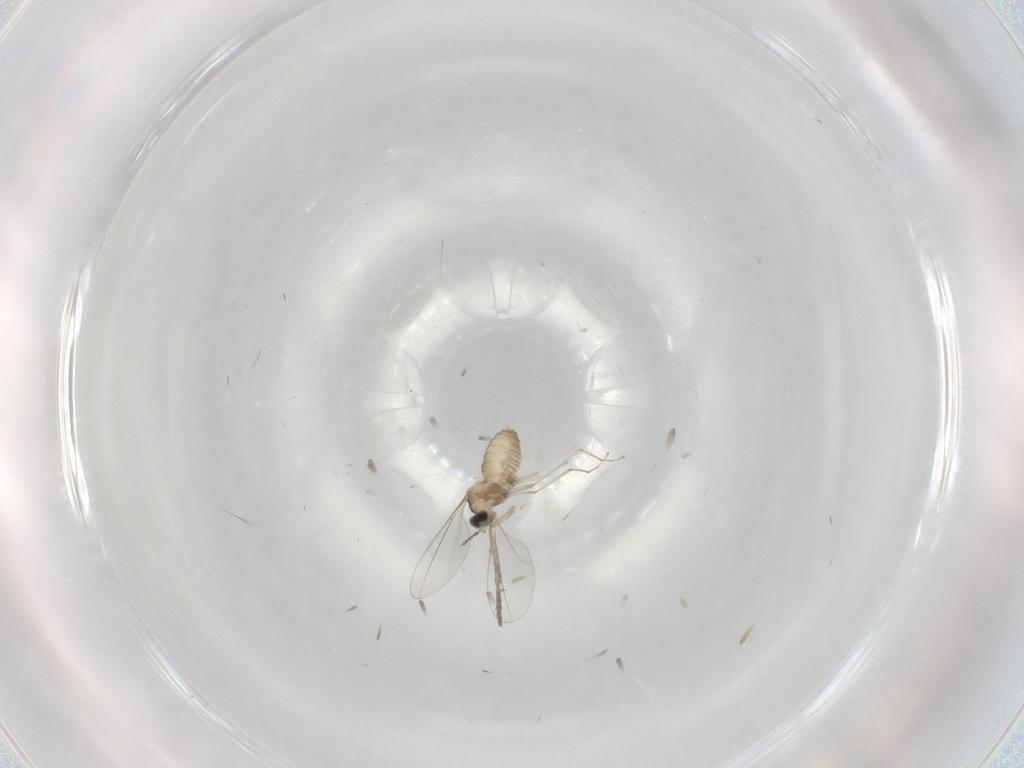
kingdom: Animalia
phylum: Arthropoda
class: Insecta
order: Diptera
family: Cecidomyiidae
